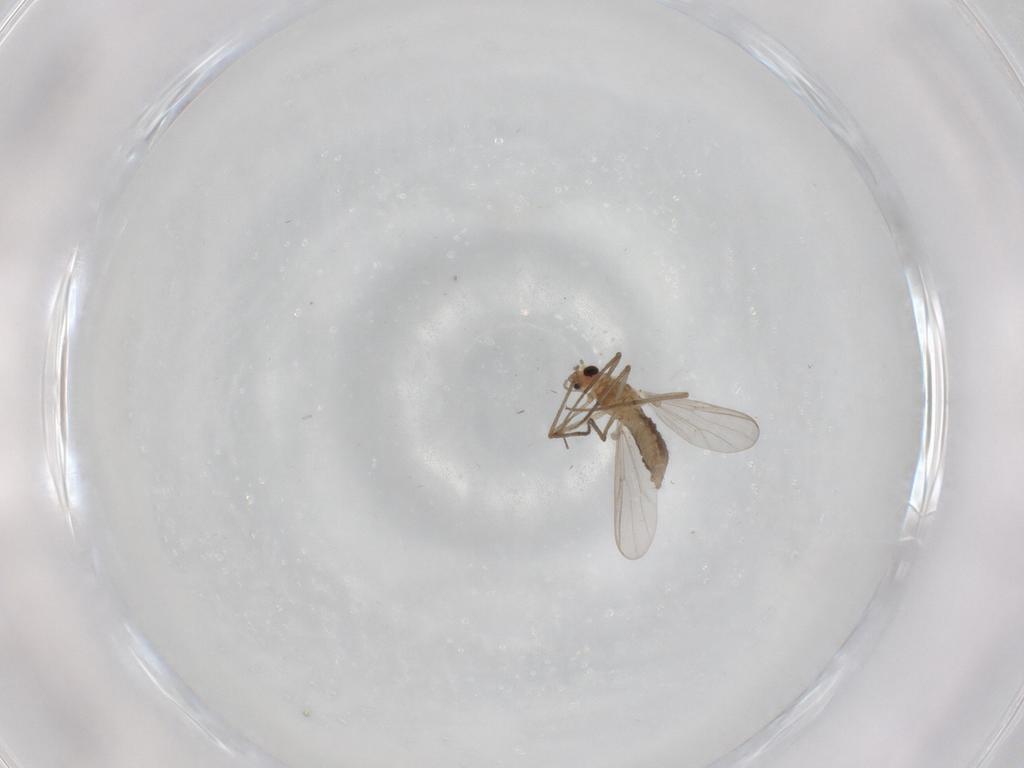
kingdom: Animalia
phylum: Arthropoda
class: Insecta
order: Diptera
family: Chironomidae
